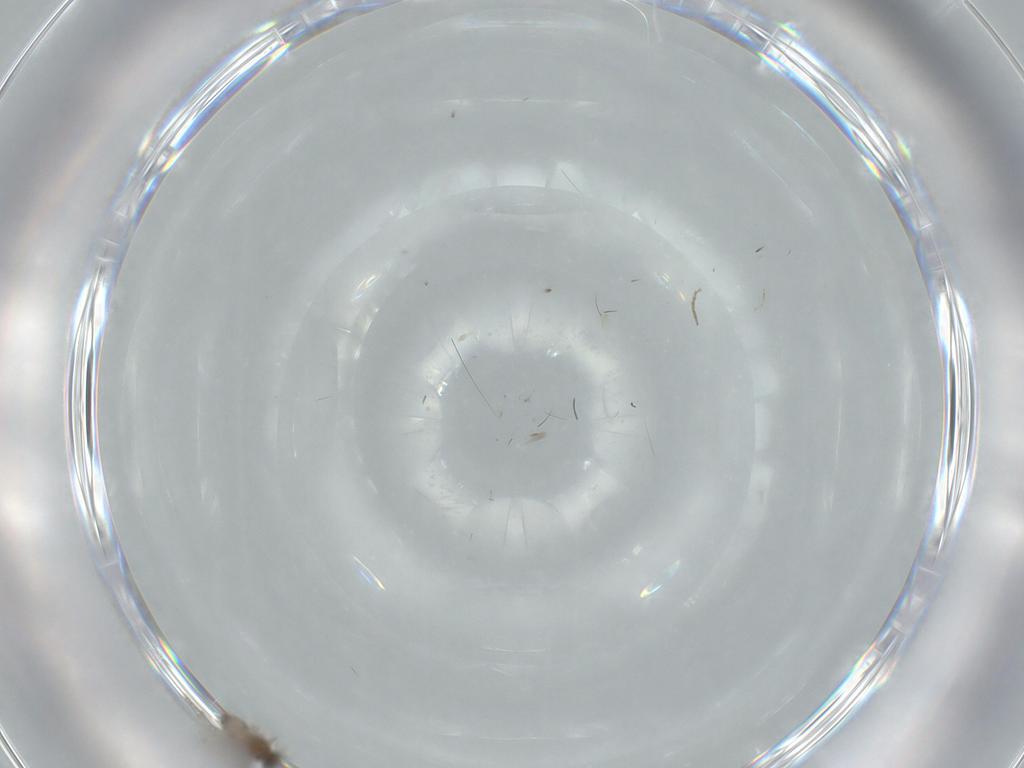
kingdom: Animalia
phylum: Arthropoda
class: Insecta
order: Diptera
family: Cecidomyiidae
